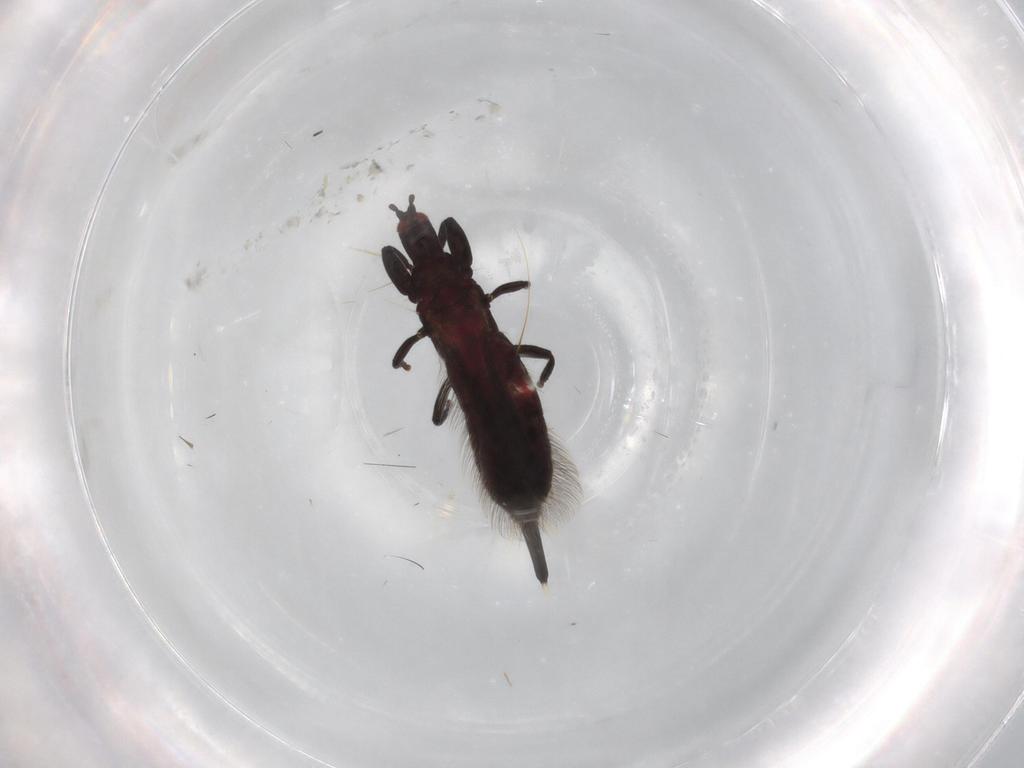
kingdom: Animalia
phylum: Arthropoda
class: Insecta
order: Thysanoptera
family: Phlaeothripidae
